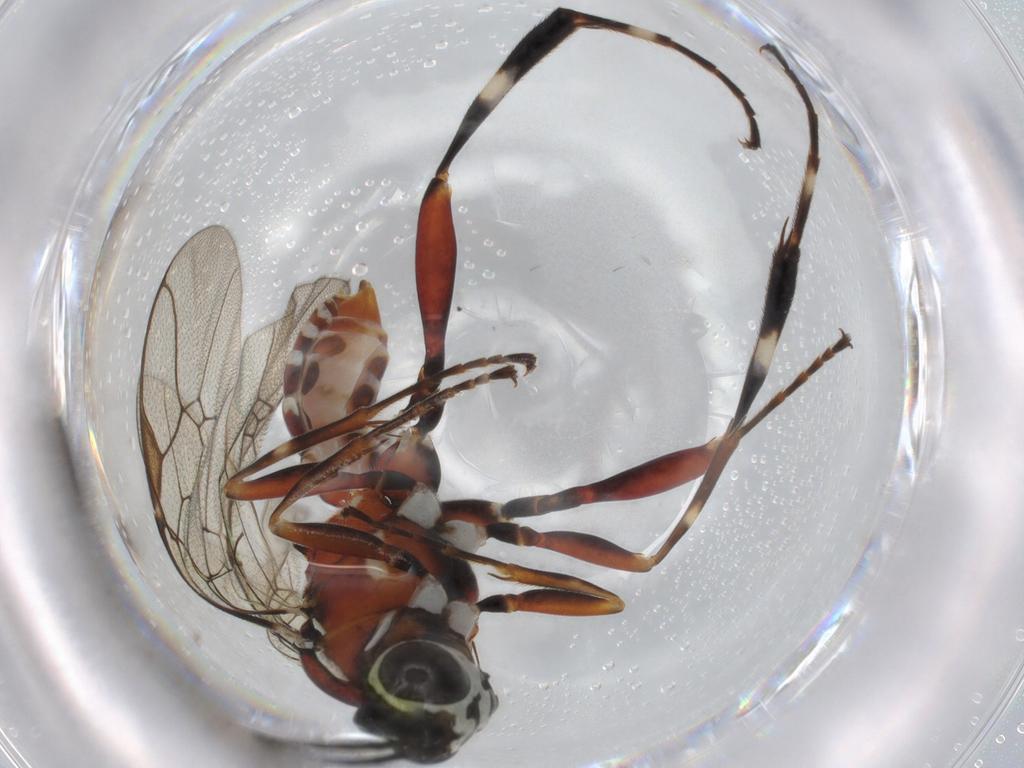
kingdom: Animalia
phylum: Arthropoda
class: Insecta
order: Hymenoptera
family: Ichneumonidae
